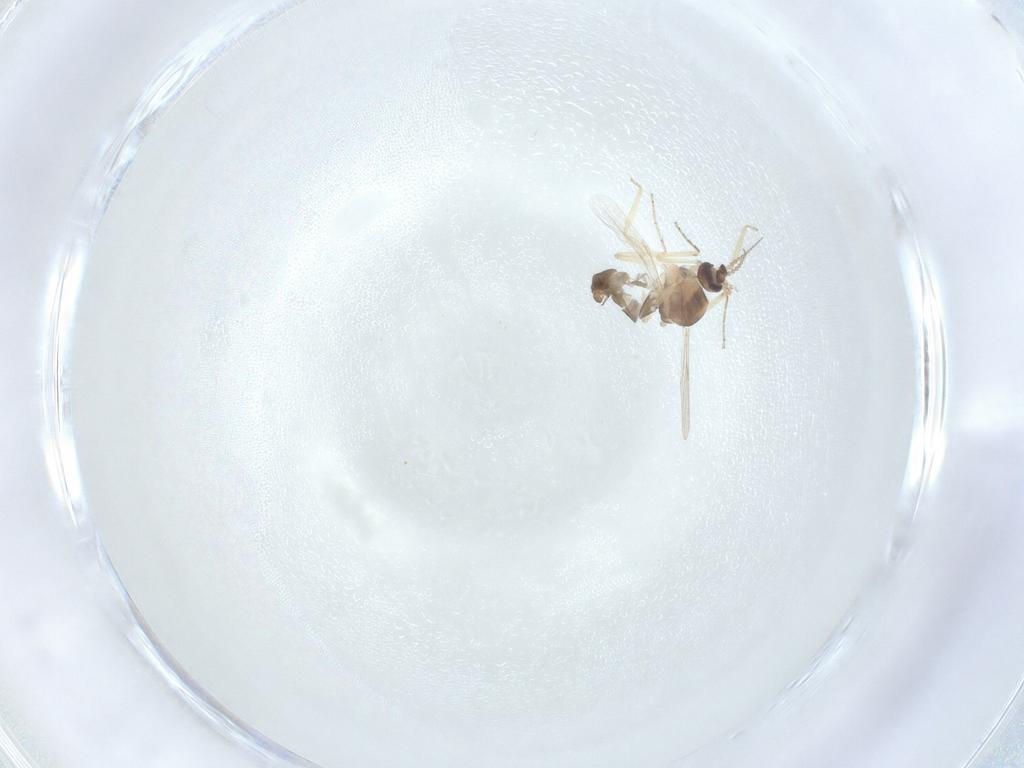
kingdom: Animalia
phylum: Arthropoda
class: Insecta
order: Diptera
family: Ceratopogonidae
